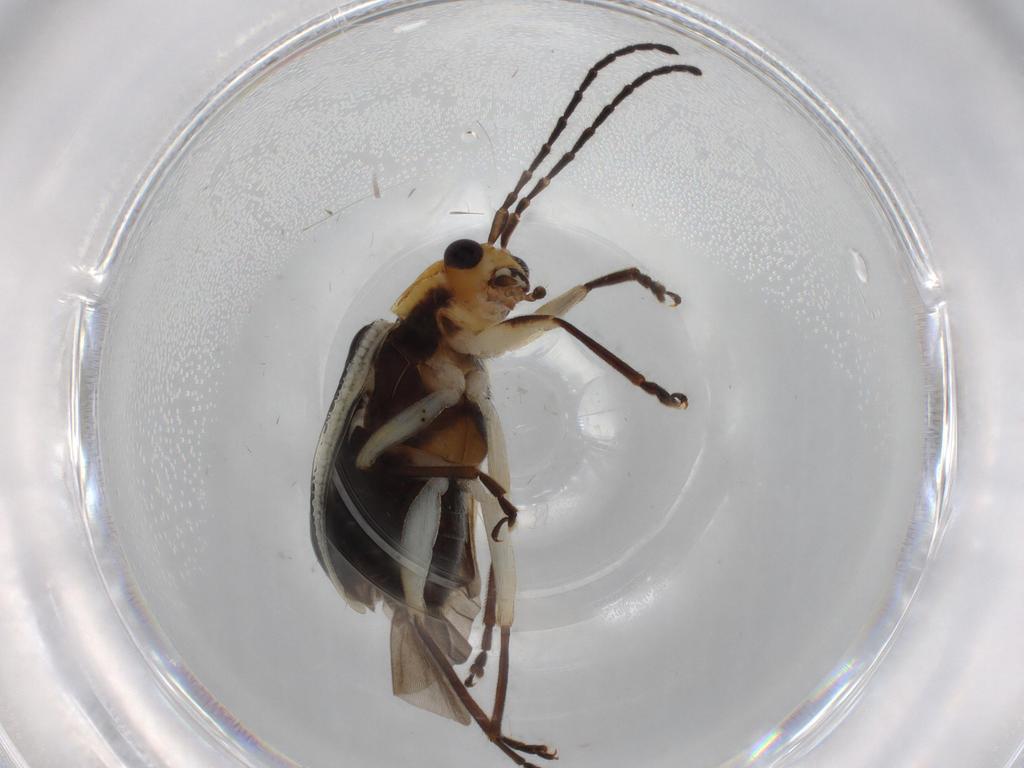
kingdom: Animalia
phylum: Arthropoda
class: Insecta
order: Coleoptera
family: Chrysomelidae
